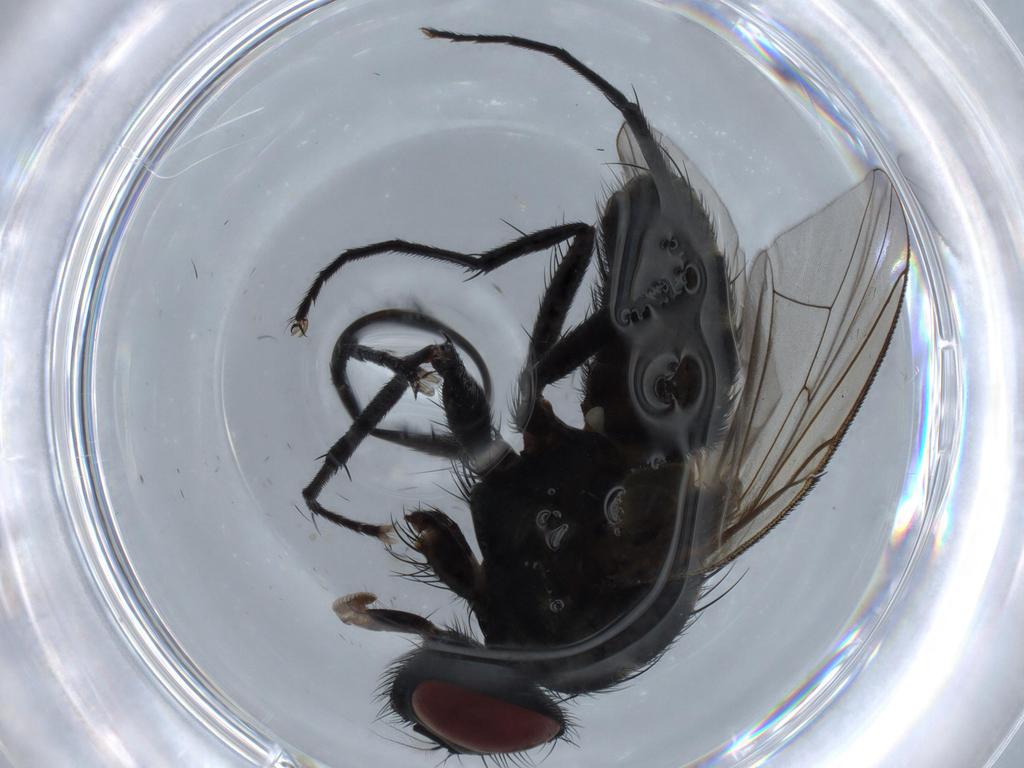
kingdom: Animalia
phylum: Arthropoda
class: Insecta
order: Diptera
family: Muscidae
